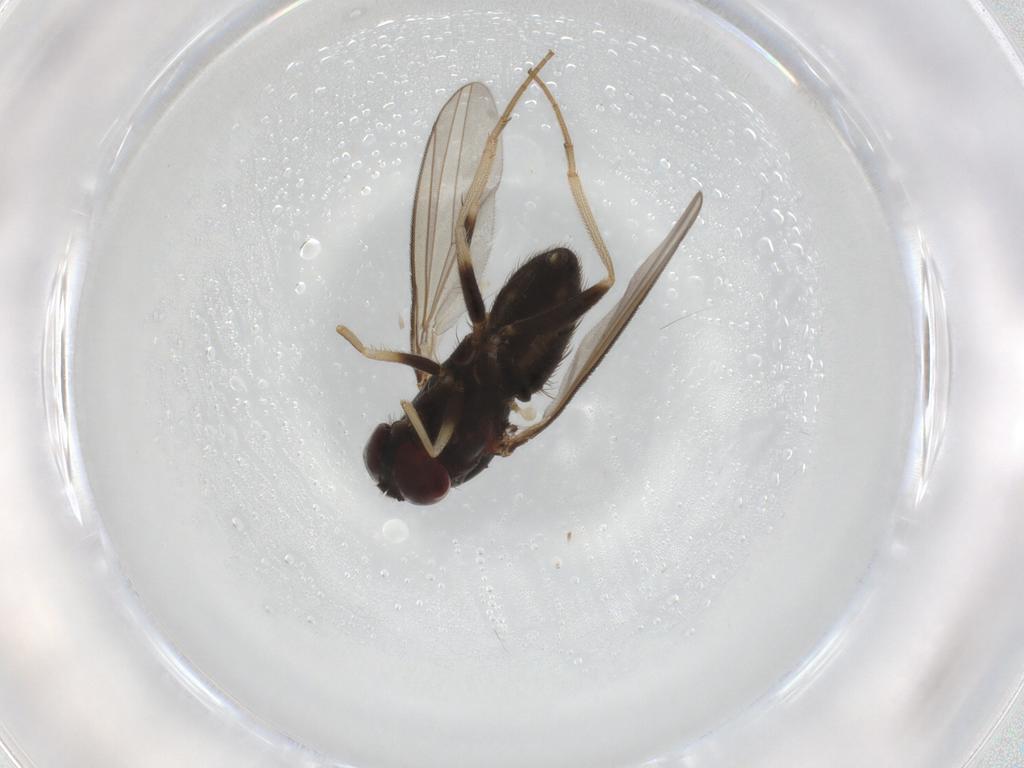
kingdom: Animalia
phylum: Arthropoda
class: Insecta
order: Diptera
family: Dolichopodidae
